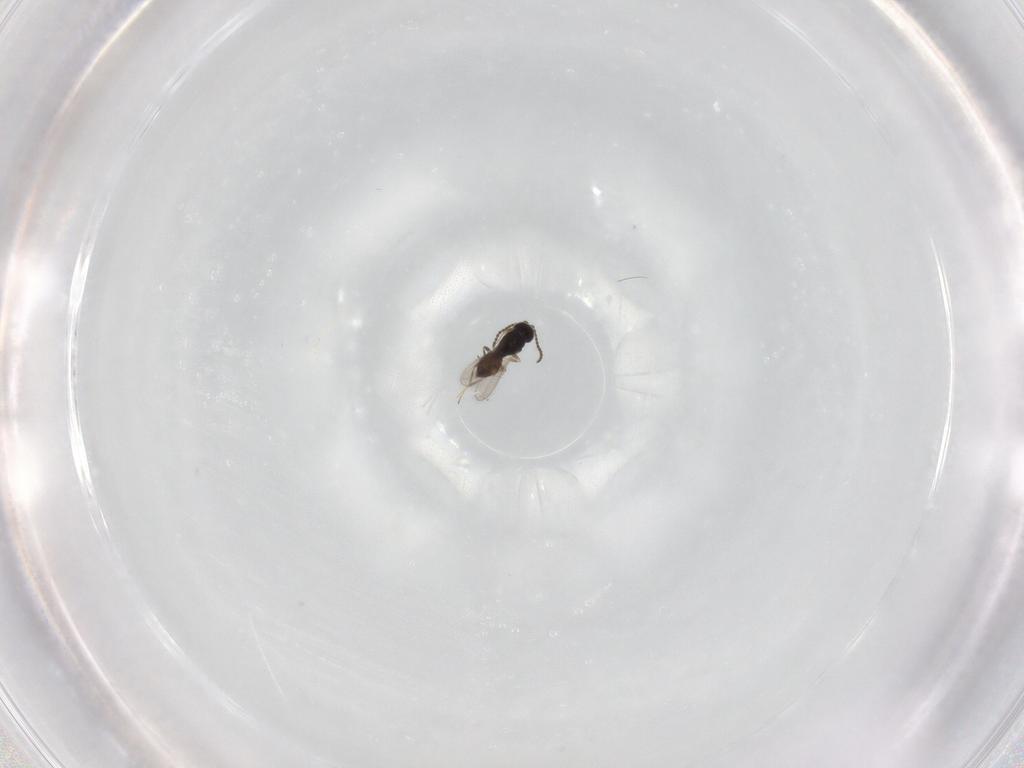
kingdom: Animalia
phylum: Arthropoda
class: Insecta
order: Hymenoptera
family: Scelionidae
